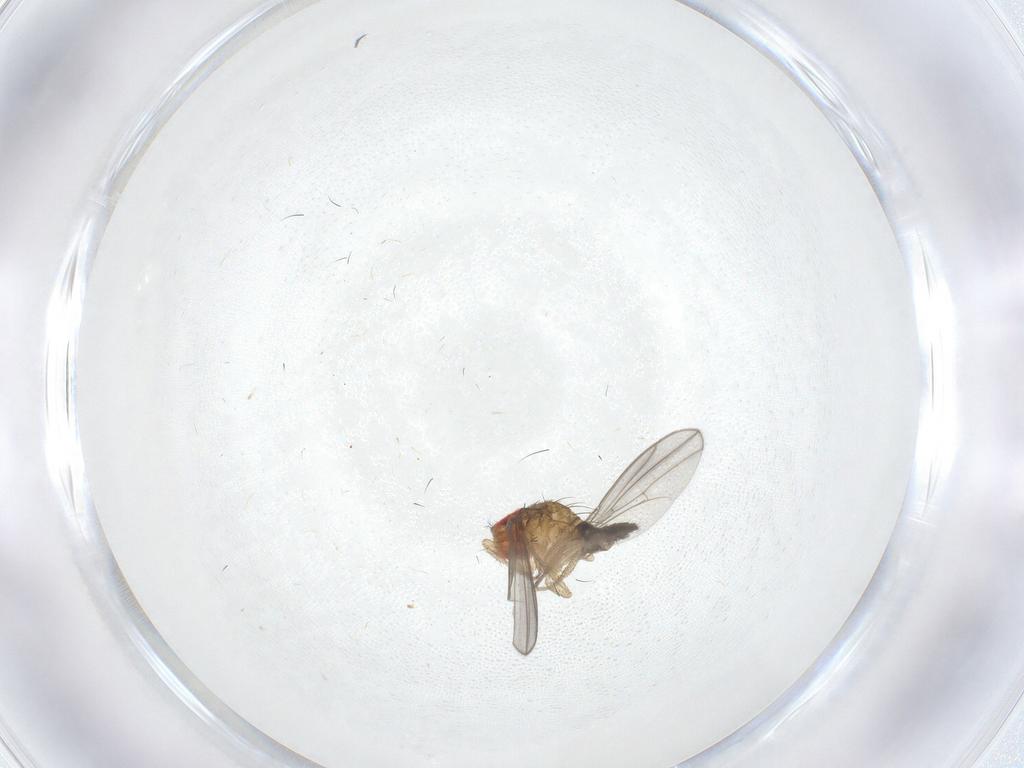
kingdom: Animalia
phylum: Arthropoda
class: Insecta
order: Diptera
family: Drosophilidae
